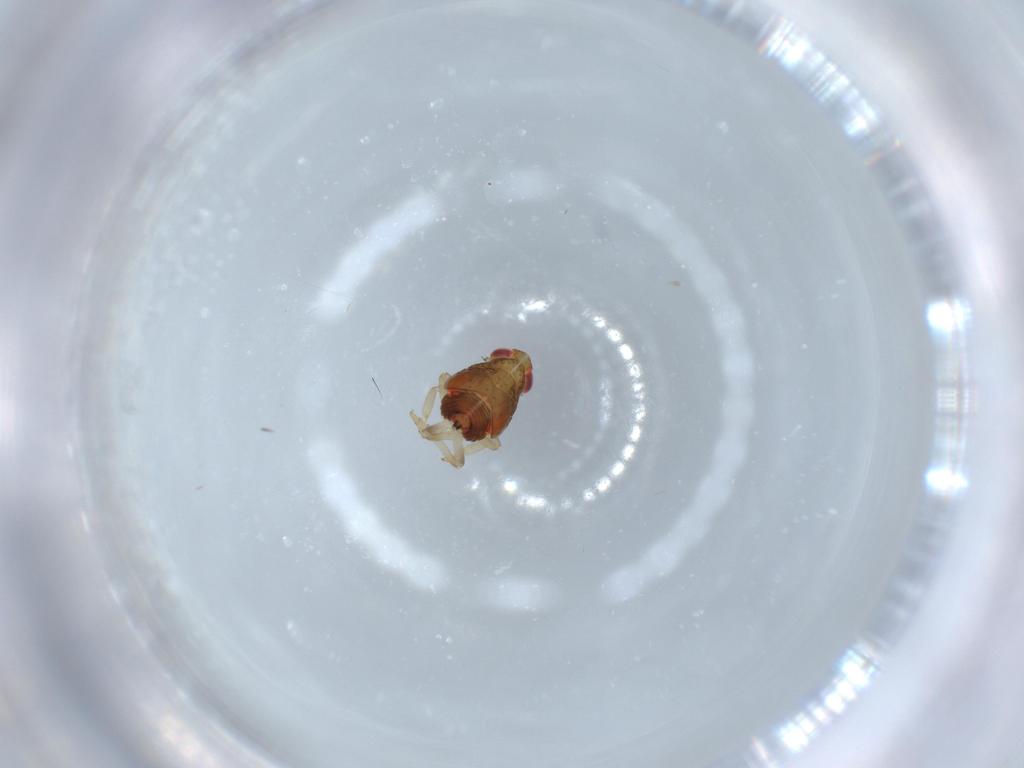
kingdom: Animalia
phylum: Arthropoda
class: Insecta
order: Hemiptera
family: Issidae
